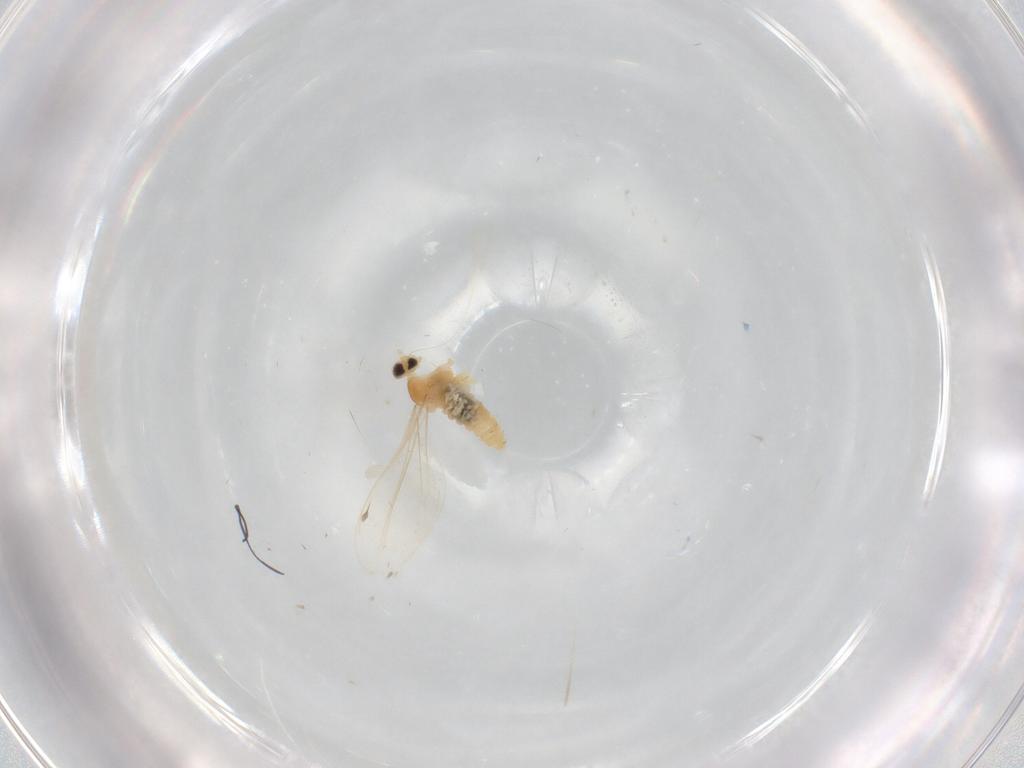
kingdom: Animalia
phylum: Arthropoda
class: Insecta
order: Diptera
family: Cecidomyiidae
